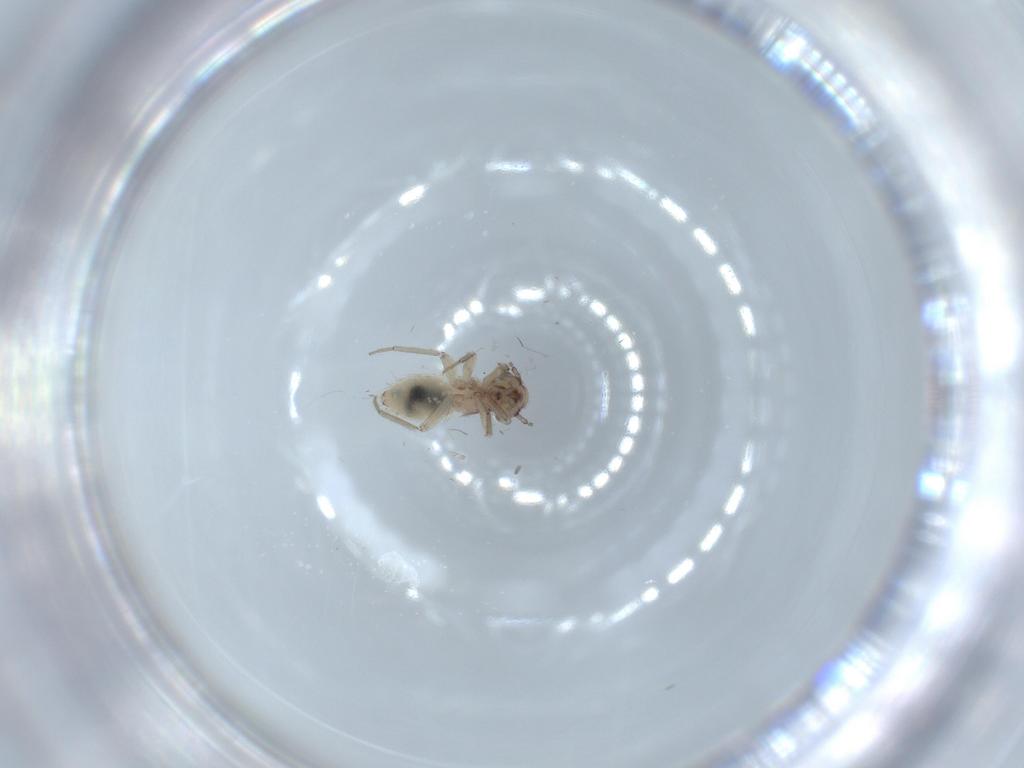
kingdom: Animalia
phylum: Arthropoda
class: Insecta
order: Psocodea
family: Lepidopsocidae
